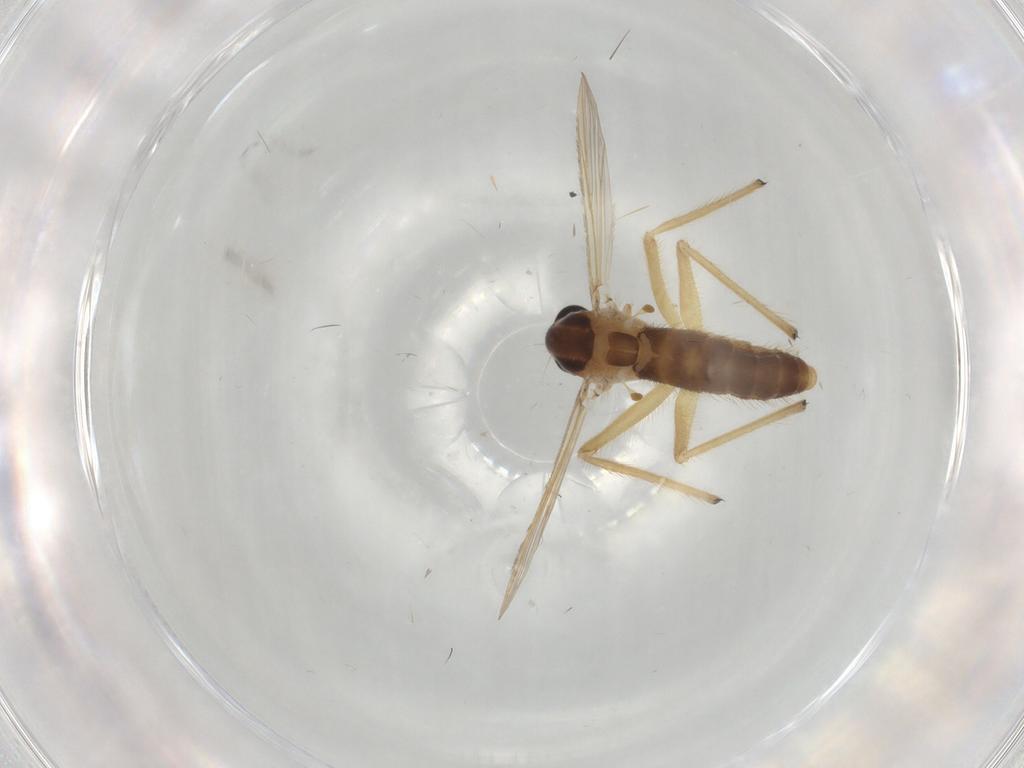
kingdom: Animalia
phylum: Arthropoda
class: Insecta
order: Diptera
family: Chironomidae
